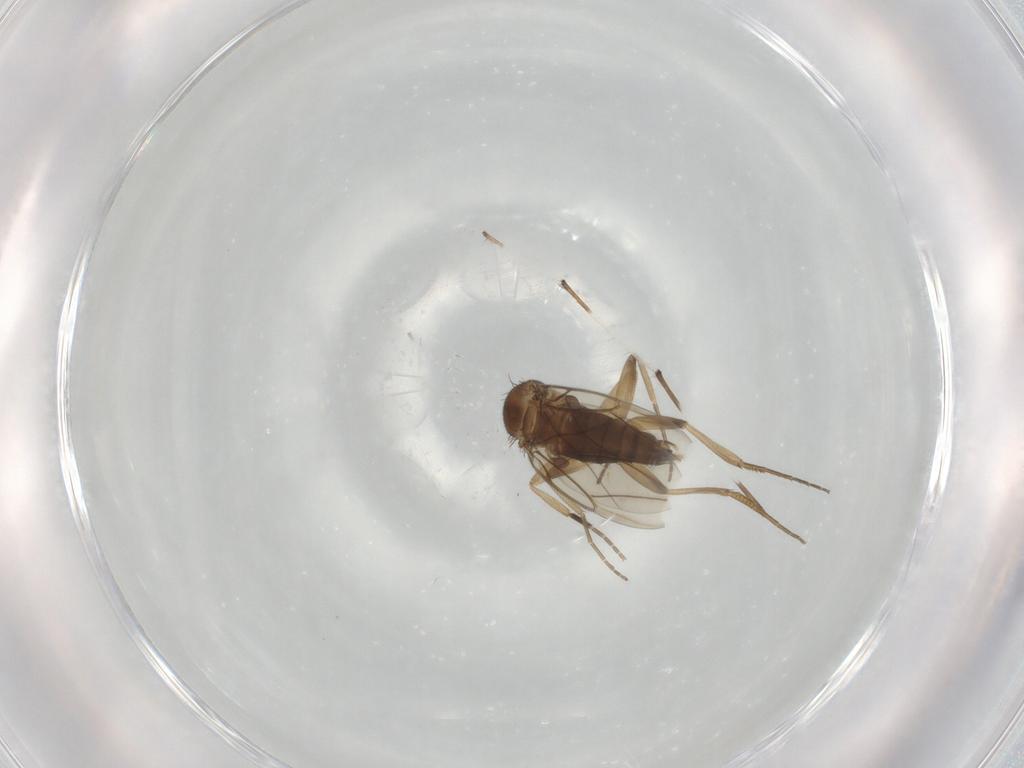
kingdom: Animalia
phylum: Arthropoda
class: Insecta
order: Diptera
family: Phoridae
